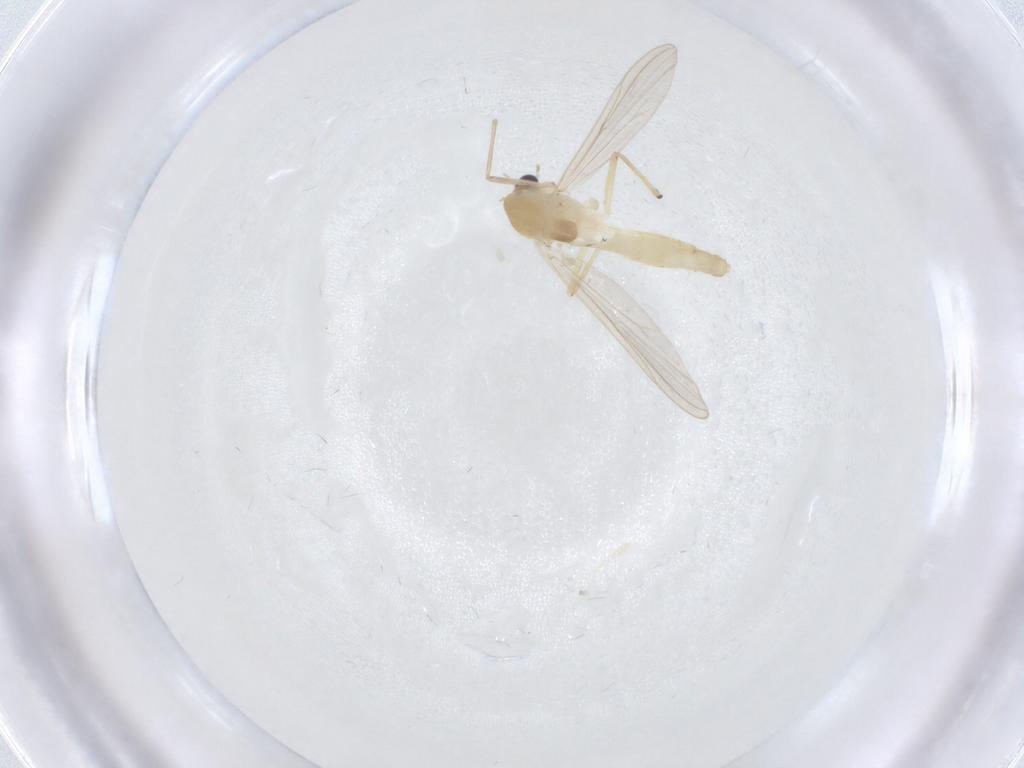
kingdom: Animalia
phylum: Arthropoda
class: Insecta
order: Diptera
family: Chironomidae
